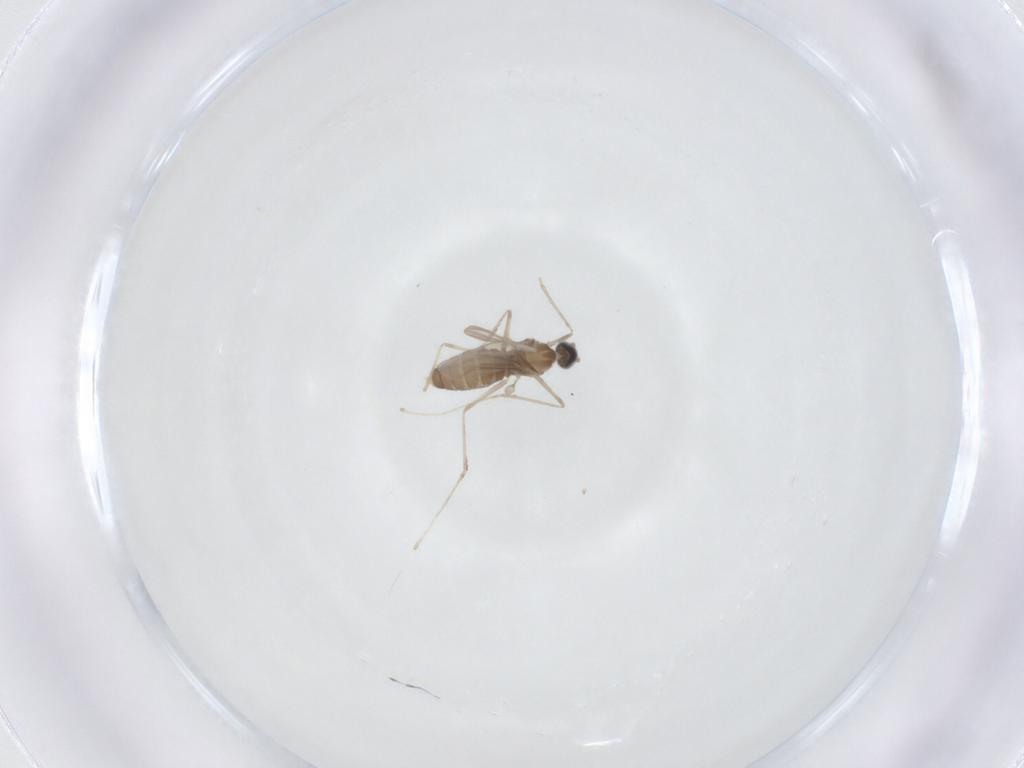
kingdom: Animalia
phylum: Arthropoda
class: Insecta
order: Diptera
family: Cecidomyiidae
